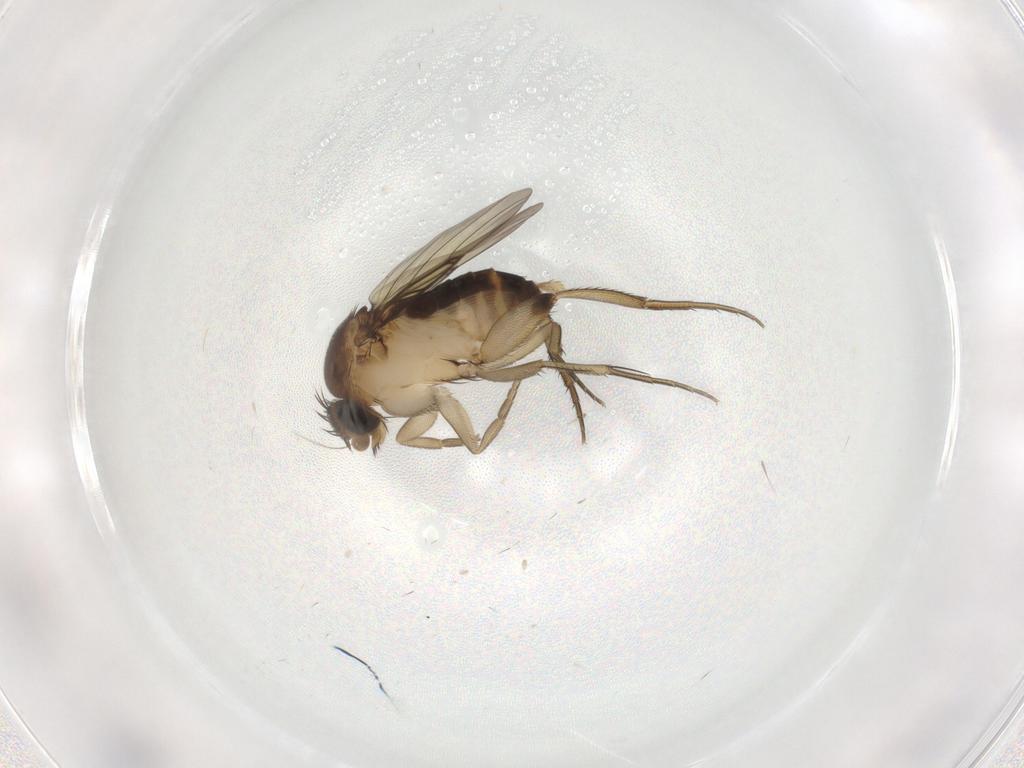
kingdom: Animalia
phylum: Arthropoda
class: Insecta
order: Diptera
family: Phoridae
